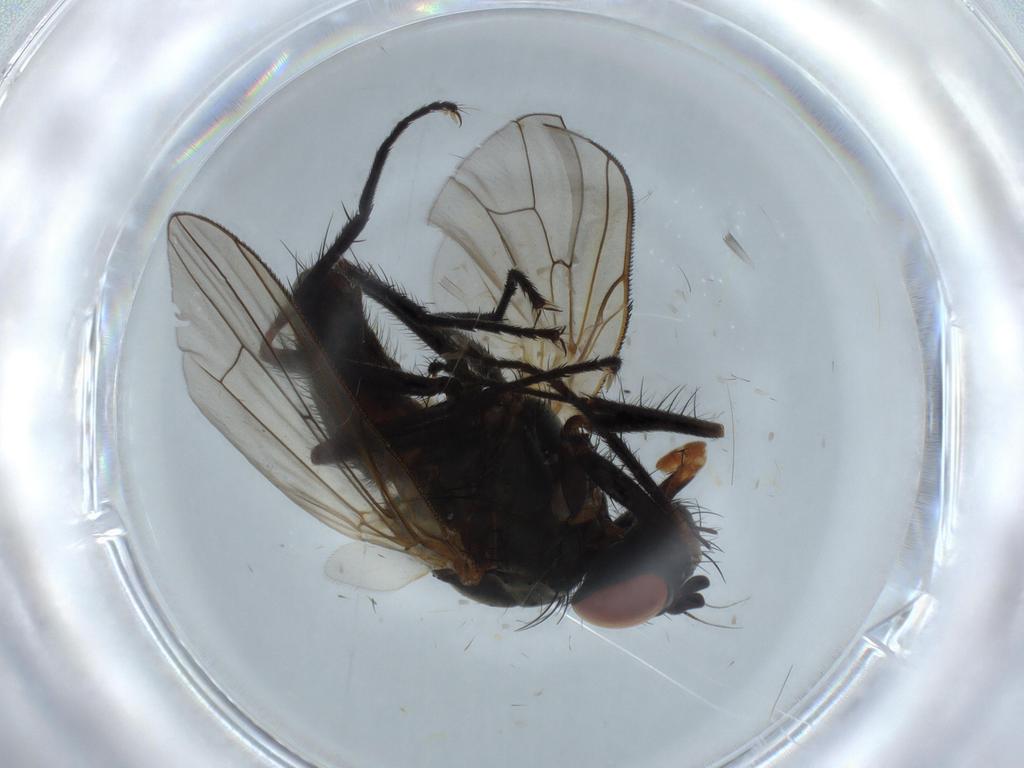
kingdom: Animalia
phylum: Arthropoda
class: Insecta
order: Diptera
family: Anthomyiidae
